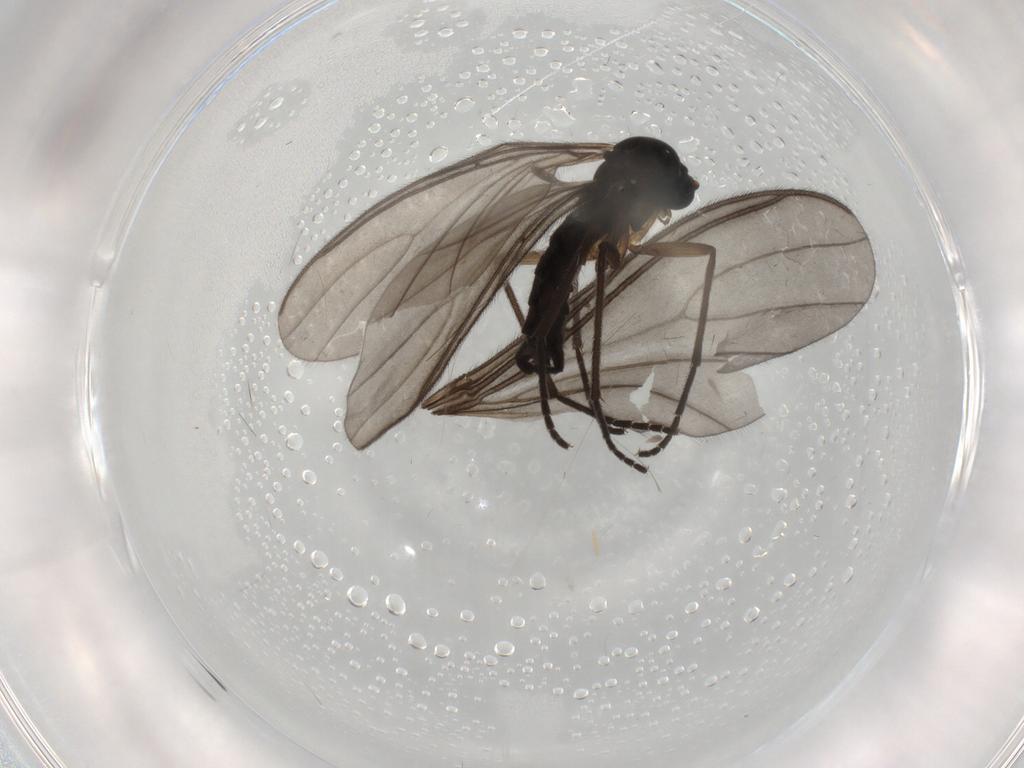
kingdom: Animalia
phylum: Arthropoda
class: Insecta
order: Diptera
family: Sciaridae
